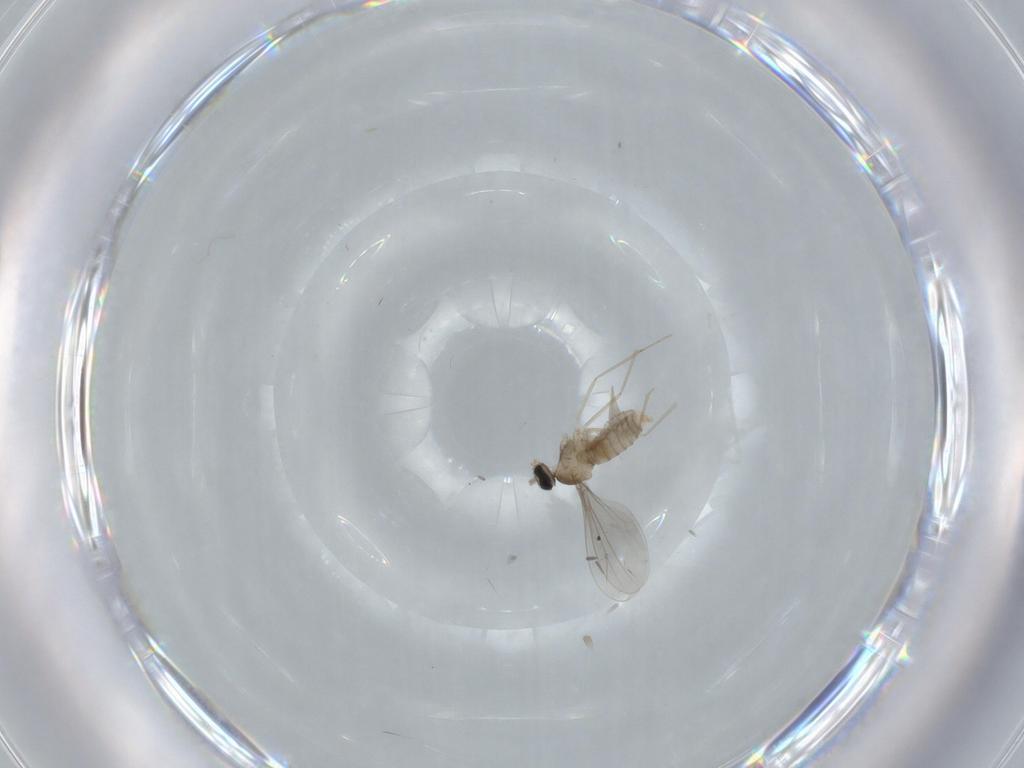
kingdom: Animalia
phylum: Arthropoda
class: Insecta
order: Diptera
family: Cecidomyiidae
